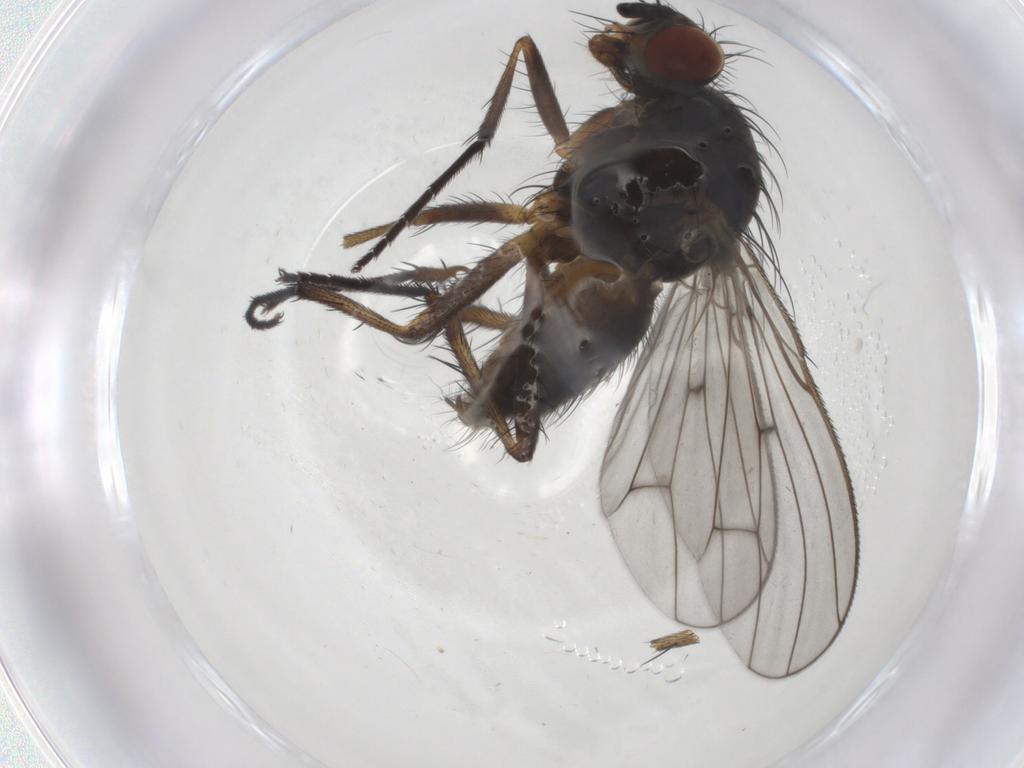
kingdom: Animalia
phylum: Arthropoda
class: Insecta
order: Diptera
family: Anthomyiidae
